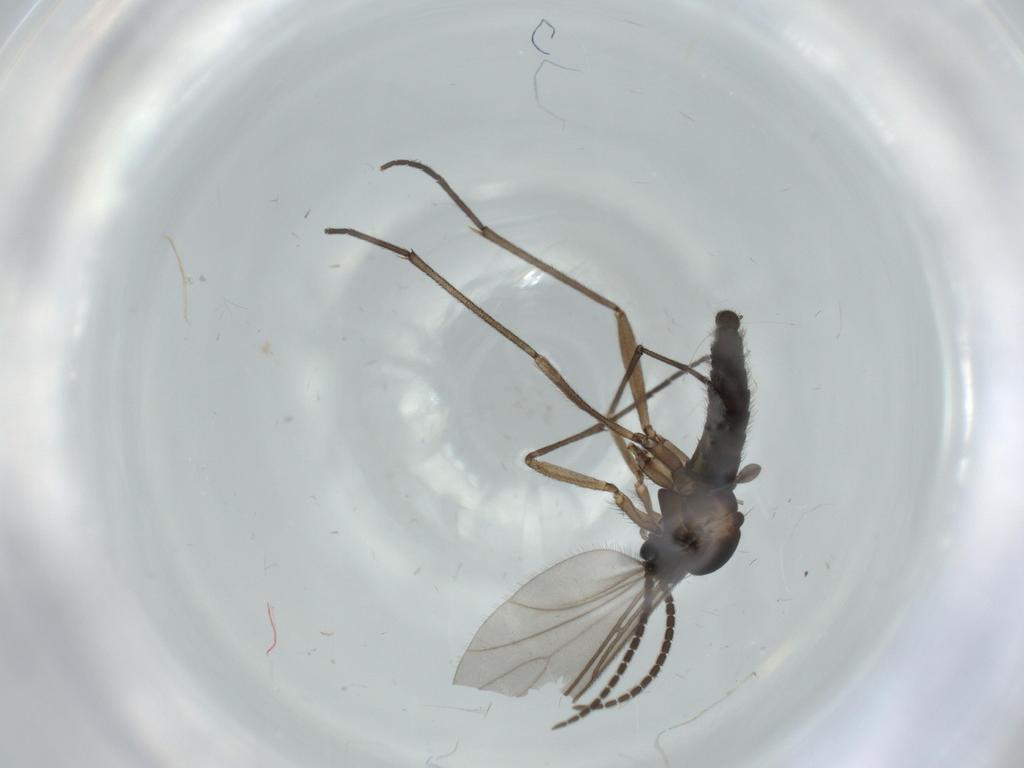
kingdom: Animalia
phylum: Arthropoda
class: Insecta
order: Diptera
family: Sciaridae
